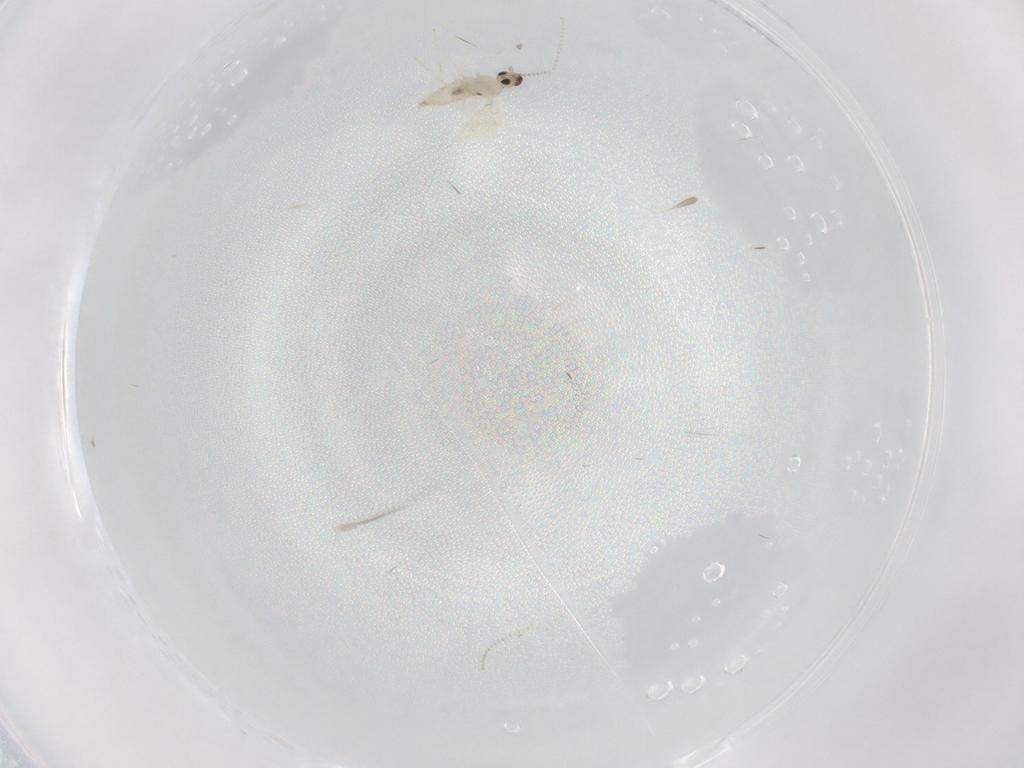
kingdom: Animalia
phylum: Arthropoda
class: Insecta
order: Diptera
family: Cecidomyiidae
